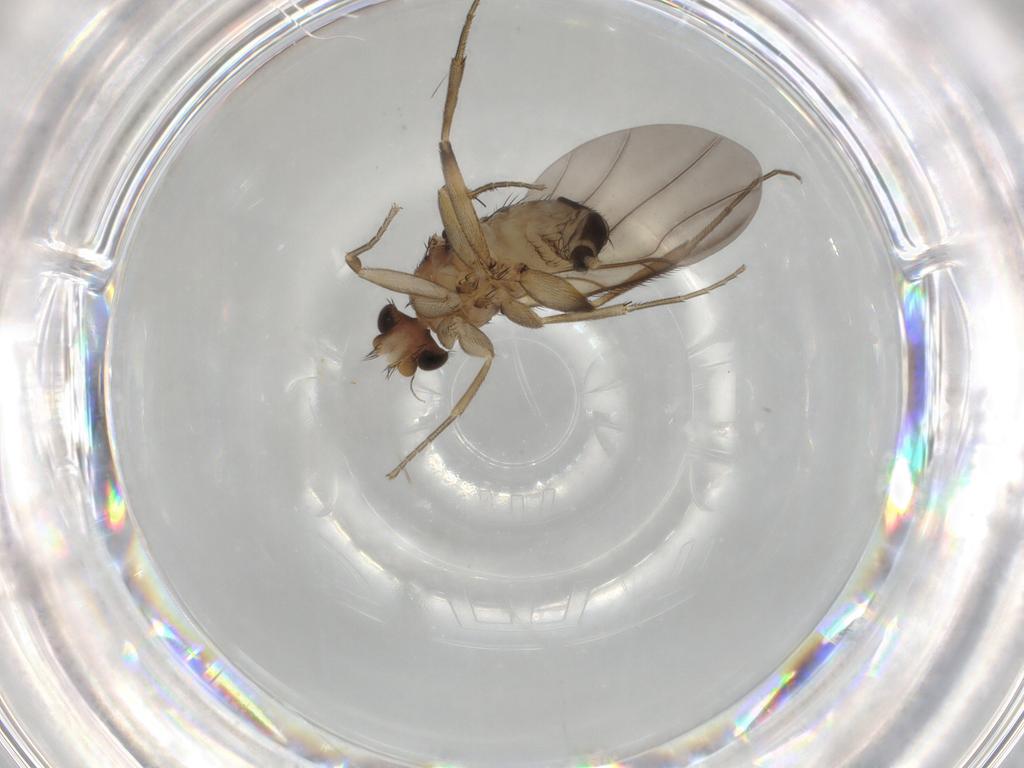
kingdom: Animalia
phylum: Arthropoda
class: Insecta
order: Diptera
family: Phoridae
